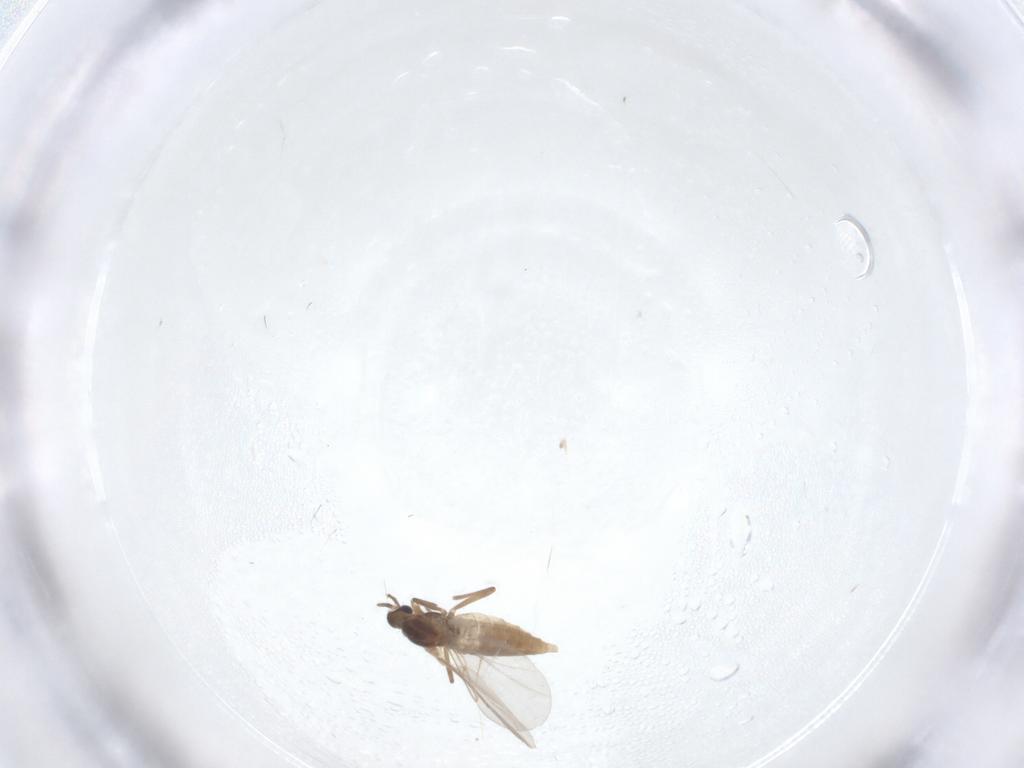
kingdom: Animalia
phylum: Arthropoda
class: Insecta
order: Diptera
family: Cecidomyiidae
